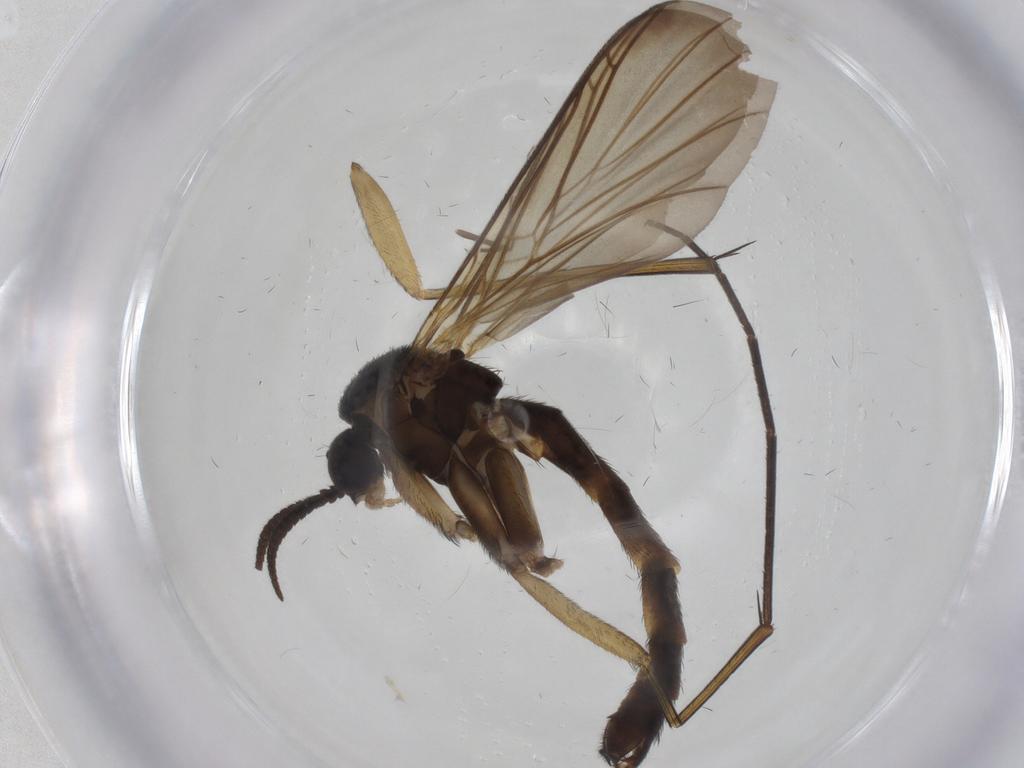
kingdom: Animalia
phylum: Arthropoda
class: Insecta
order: Diptera
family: Keroplatidae
